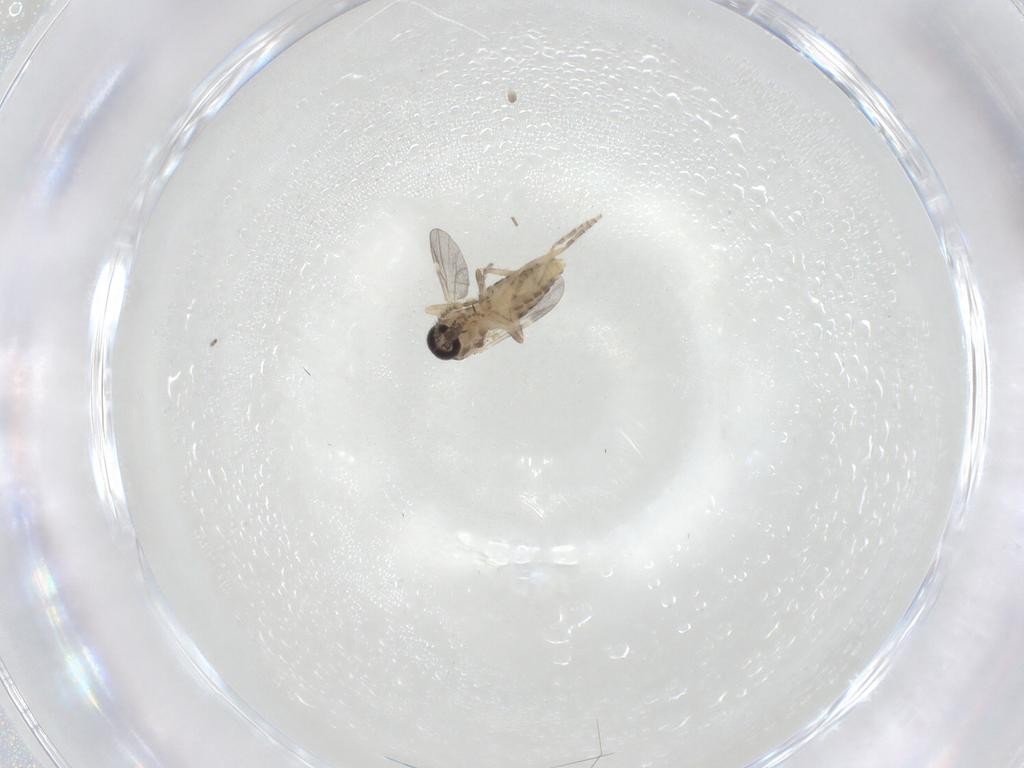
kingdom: Animalia
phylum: Arthropoda
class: Insecta
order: Diptera
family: Ceratopogonidae
